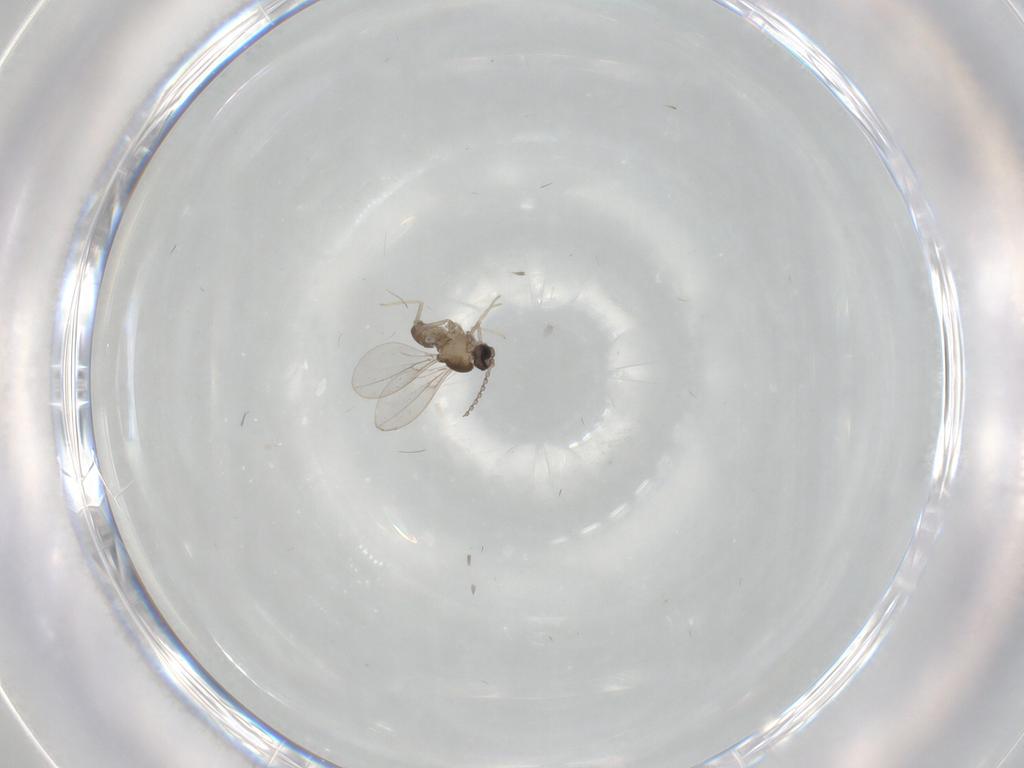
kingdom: Animalia
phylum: Arthropoda
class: Insecta
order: Diptera
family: Cecidomyiidae
